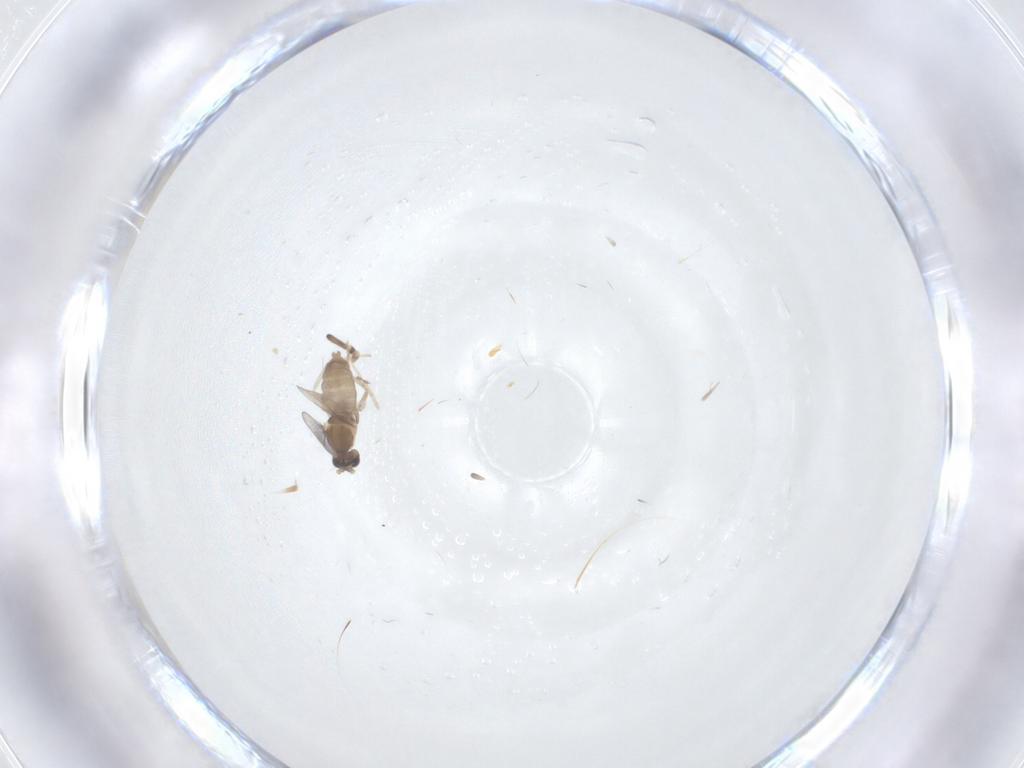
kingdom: Animalia
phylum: Arthropoda
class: Insecta
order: Diptera
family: Cecidomyiidae
